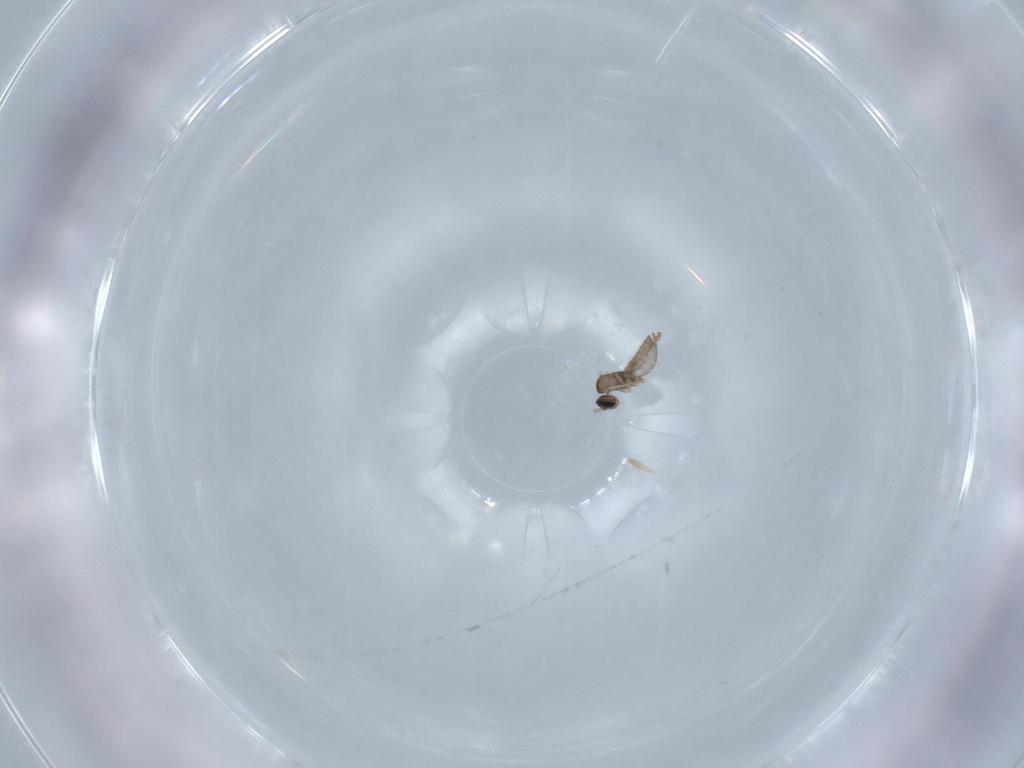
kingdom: Animalia
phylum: Arthropoda
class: Insecta
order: Diptera
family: Cecidomyiidae
